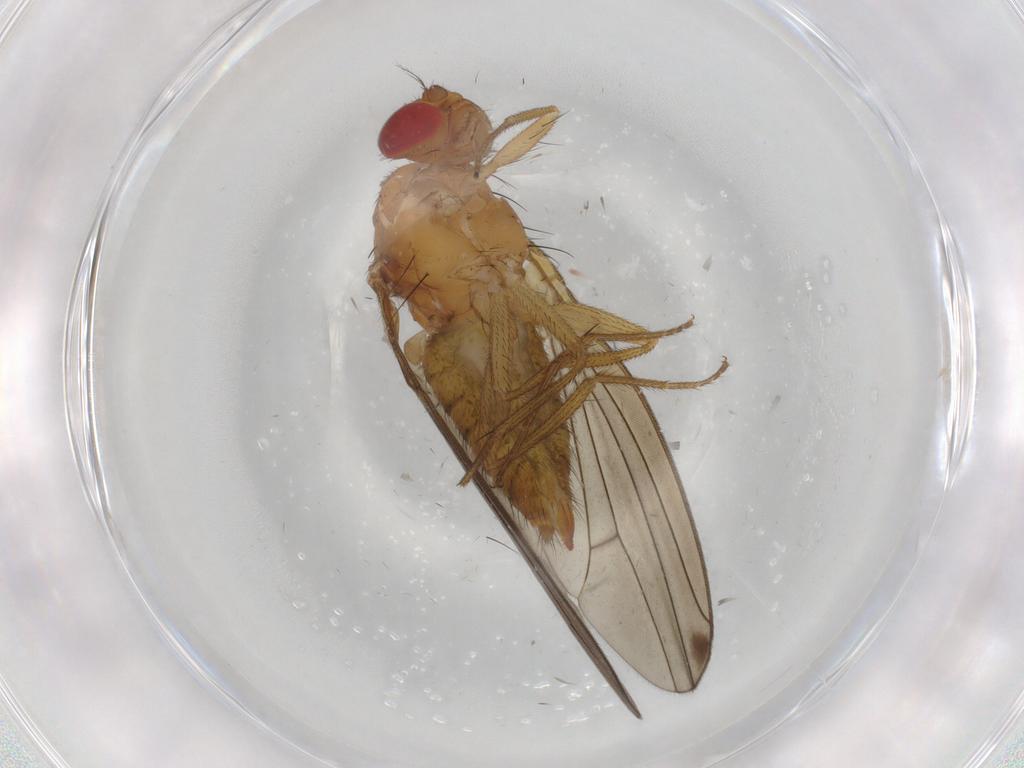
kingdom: Animalia
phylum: Arthropoda
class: Insecta
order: Diptera
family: Drosophilidae
